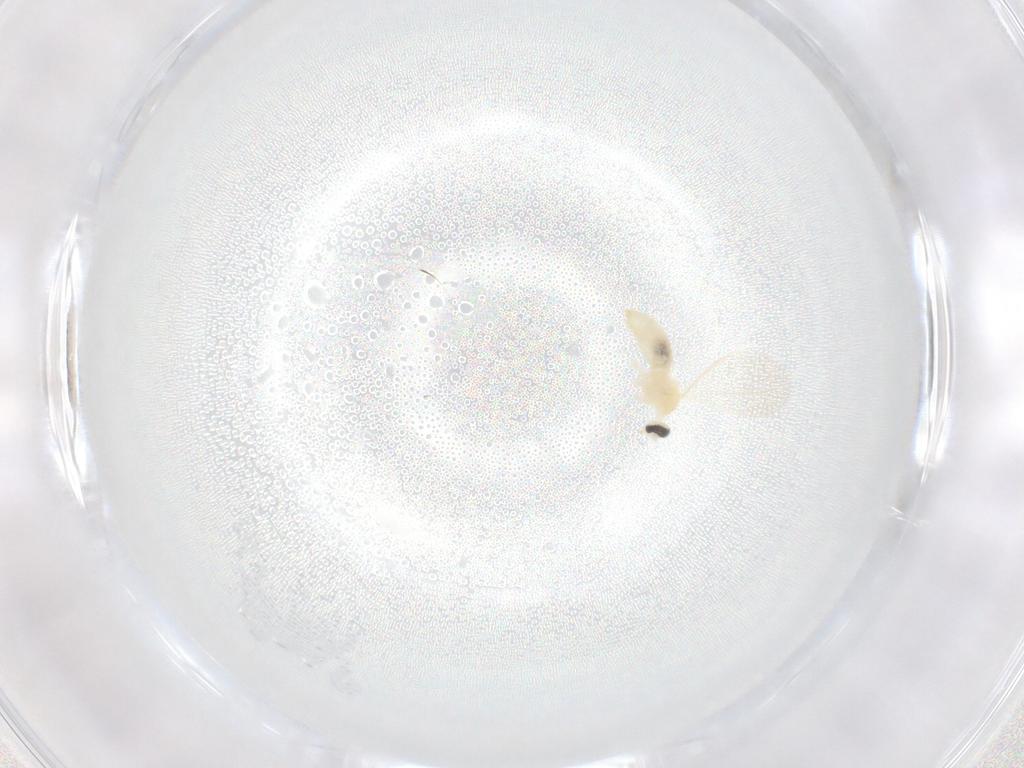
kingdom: Animalia
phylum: Arthropoda
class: Insecta
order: Diptera
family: Cecidomyiidae
